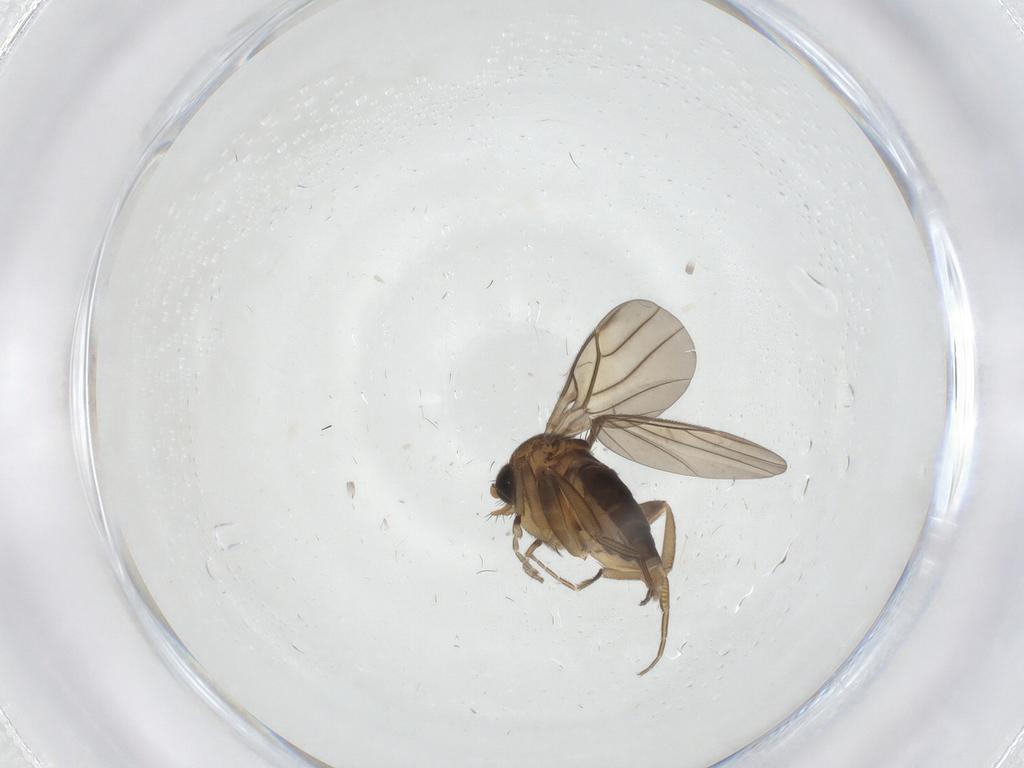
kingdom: Animalia
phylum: Arthropoda
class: Insecta
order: Diptera
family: Phoridae
